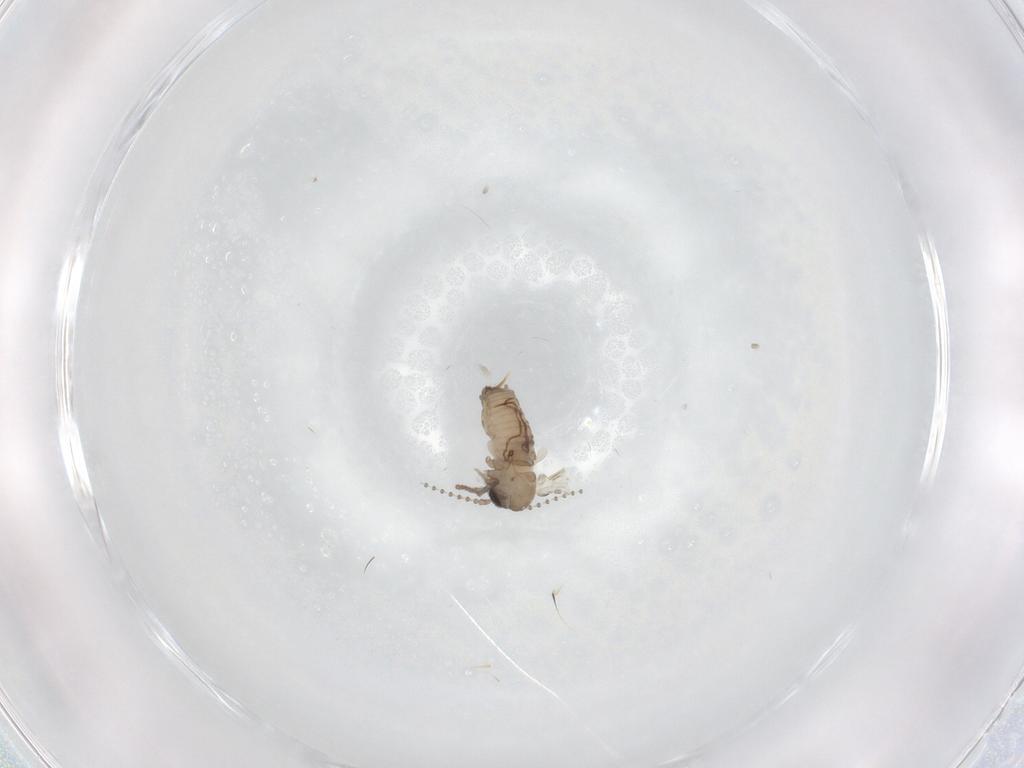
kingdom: Animalia
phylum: Arthropoda
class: Insecta
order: Diptera
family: Psychodidae
